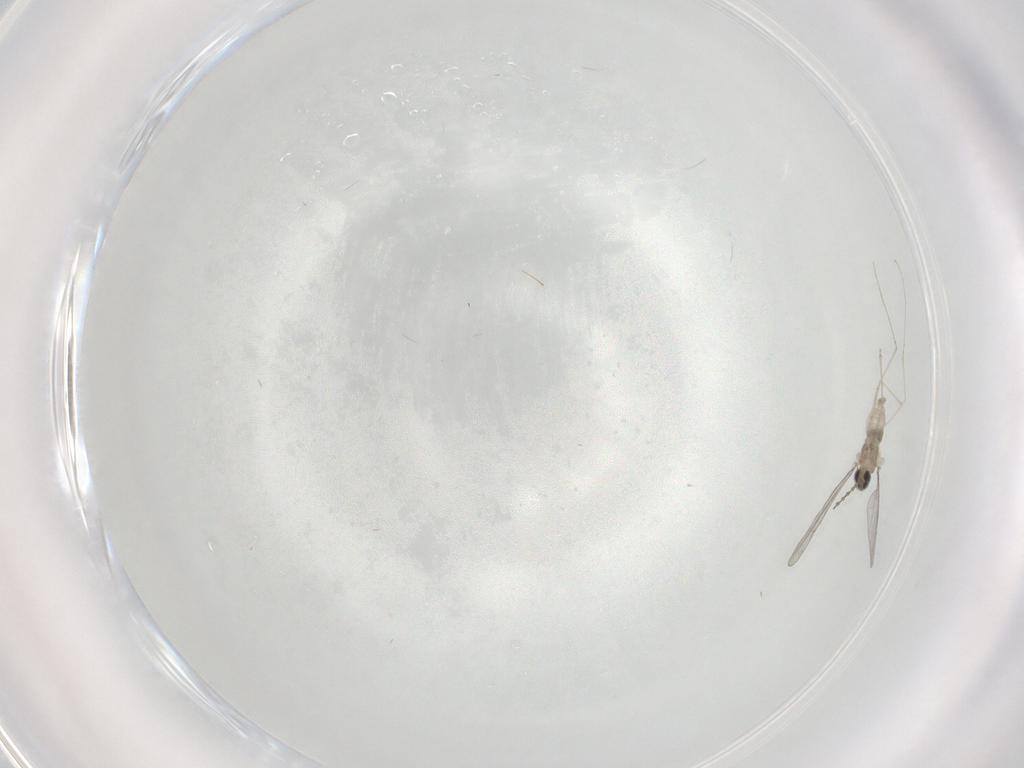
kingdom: Animalia
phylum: Arthropoda
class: Insecta
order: Diptera
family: Cecidomyiidae
